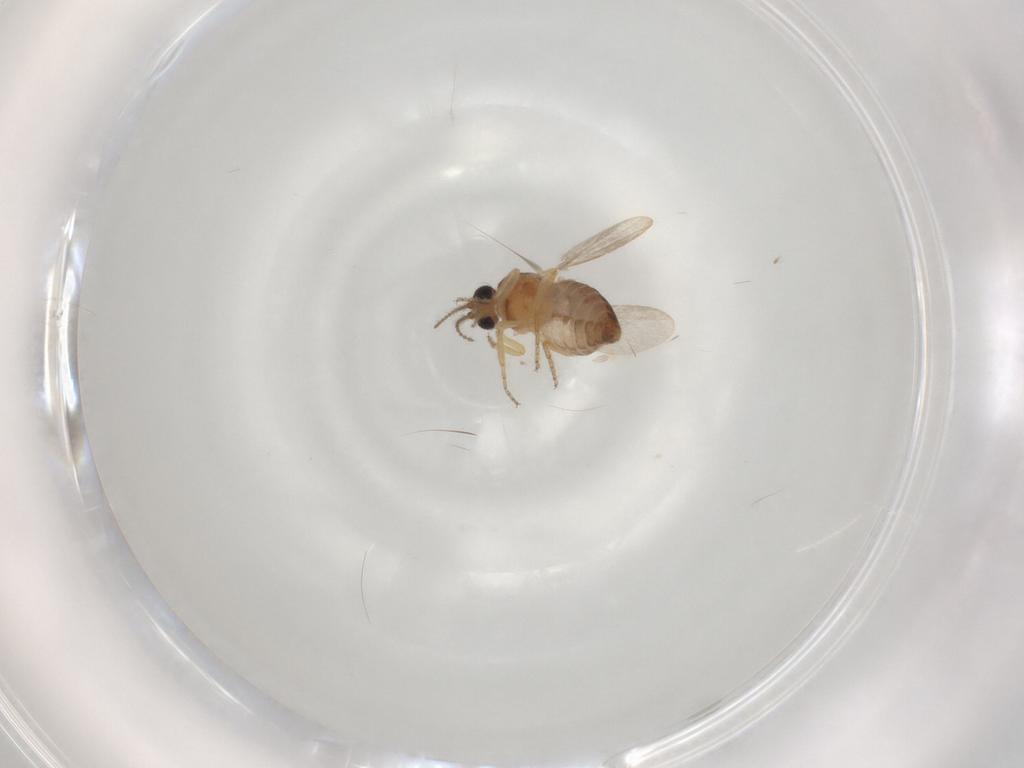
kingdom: Animalia
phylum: Arthropoda
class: Insecta
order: Diptera
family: Ceratopogonidae
